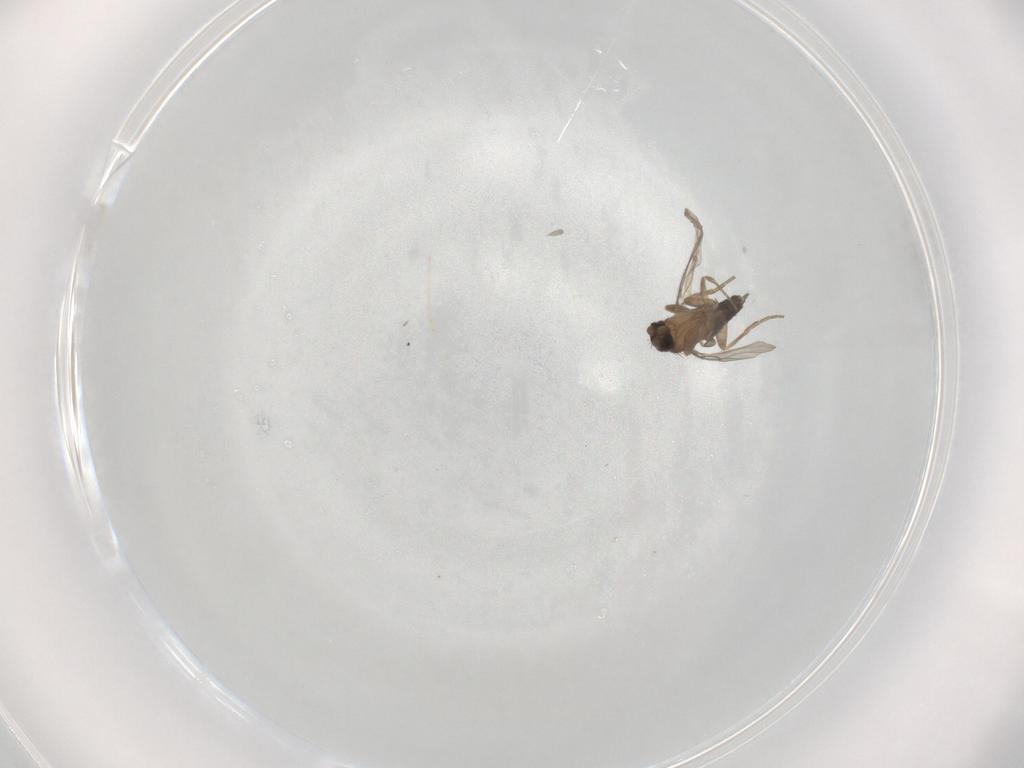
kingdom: Animalia
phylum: Arthropoda
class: Insecta
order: Diptera
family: Phoridae
